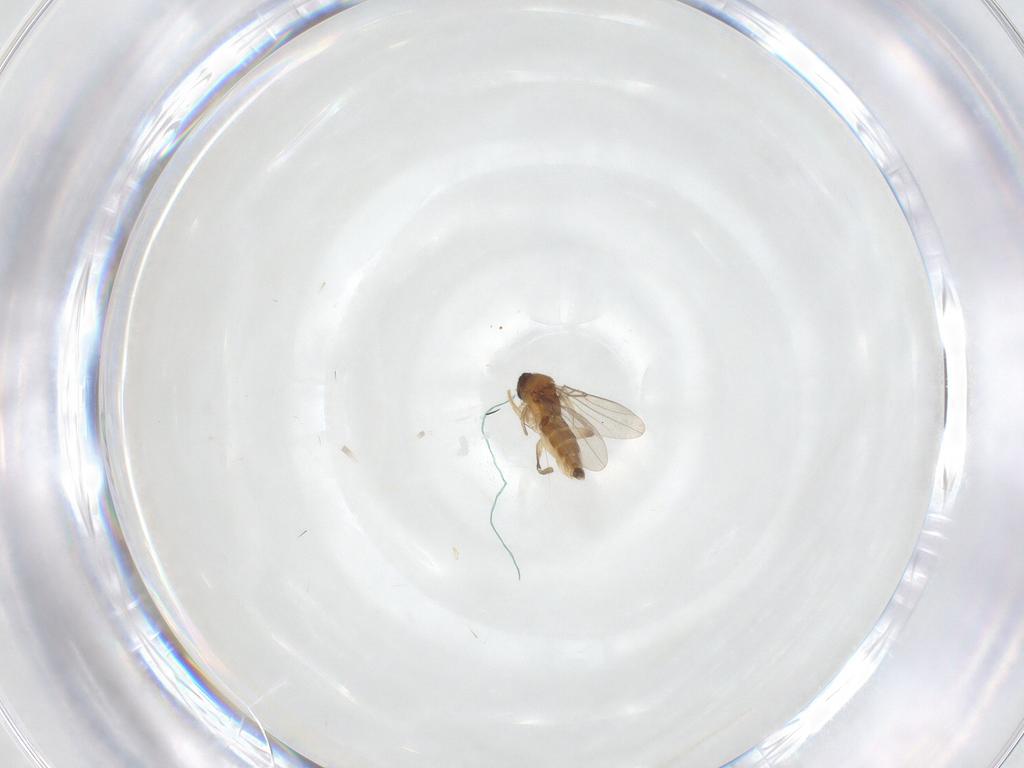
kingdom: Animalia
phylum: Arthropoda
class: Insecta
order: Diptera
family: Phoridae
